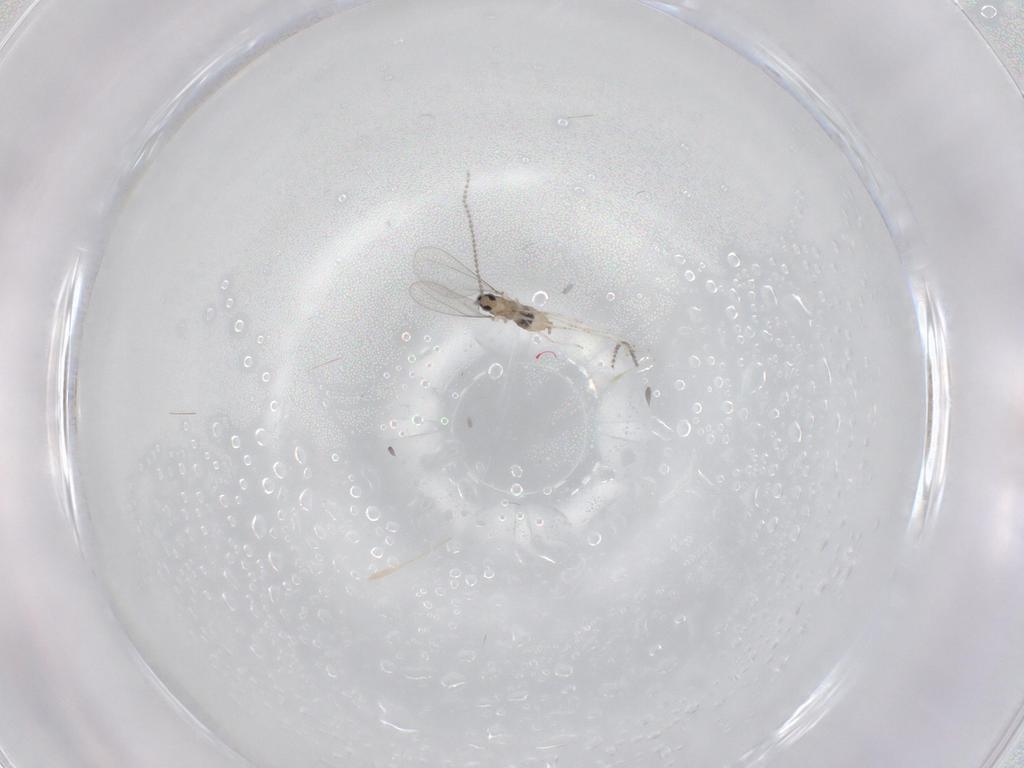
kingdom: Animalia
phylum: Arthropoda
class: Insecta
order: Diptera
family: Cecidomyiidae
